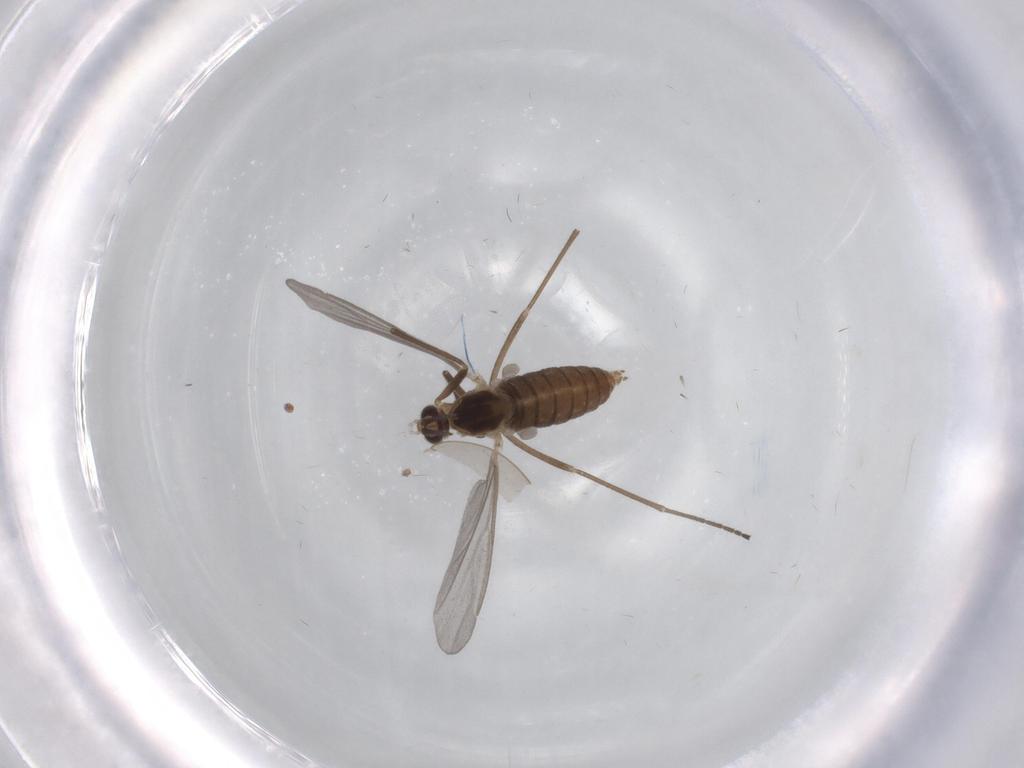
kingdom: Animalia
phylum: Arthropoda
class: Insecta
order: Diptera
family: Cecidomyiidae
